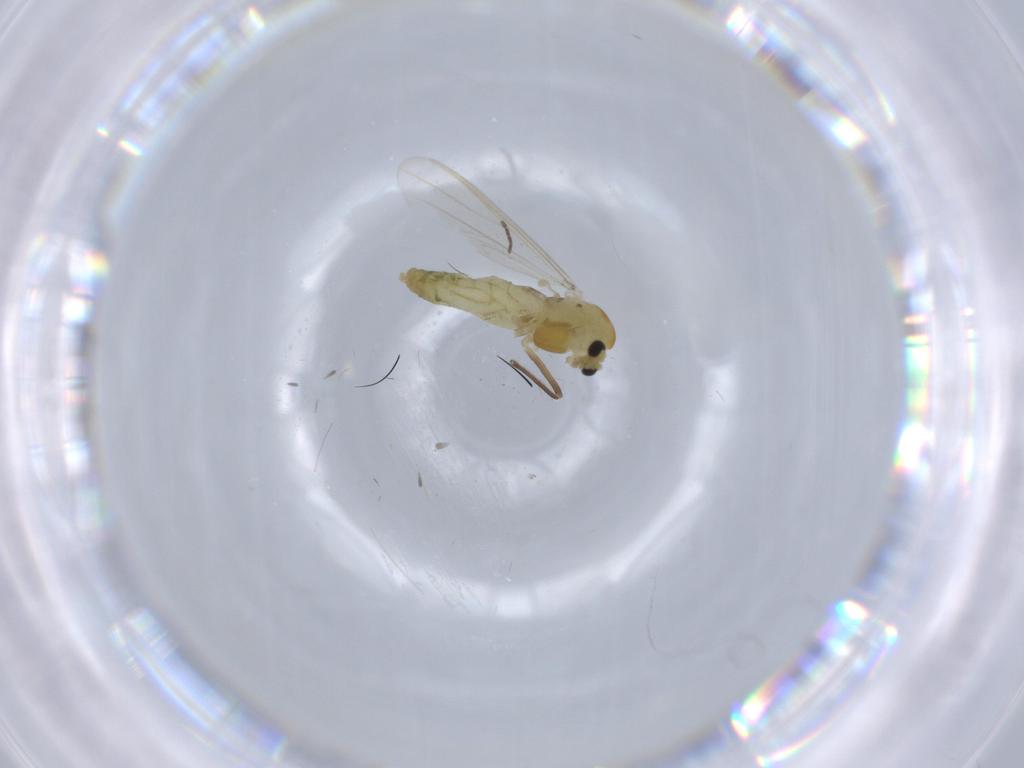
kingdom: Animalia
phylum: Arthropoda
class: Insecta
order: Diptera
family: Chironomidae
